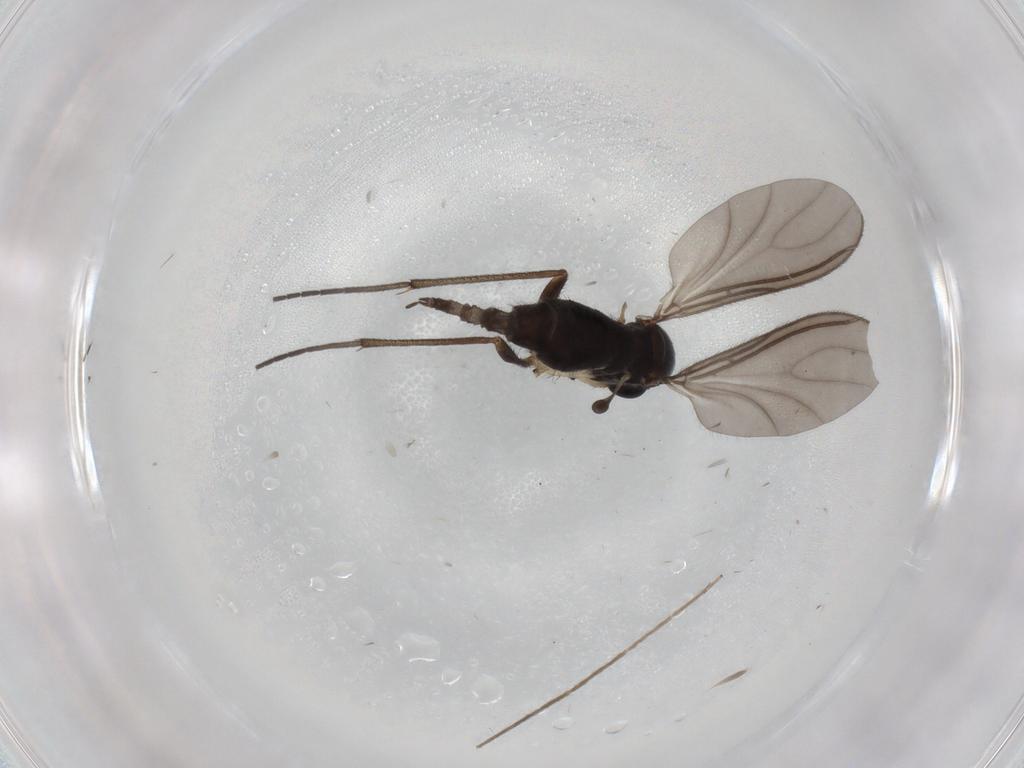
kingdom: Animalia
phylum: Arthropoda
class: Insecta
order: Diptera
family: Sciaridae
